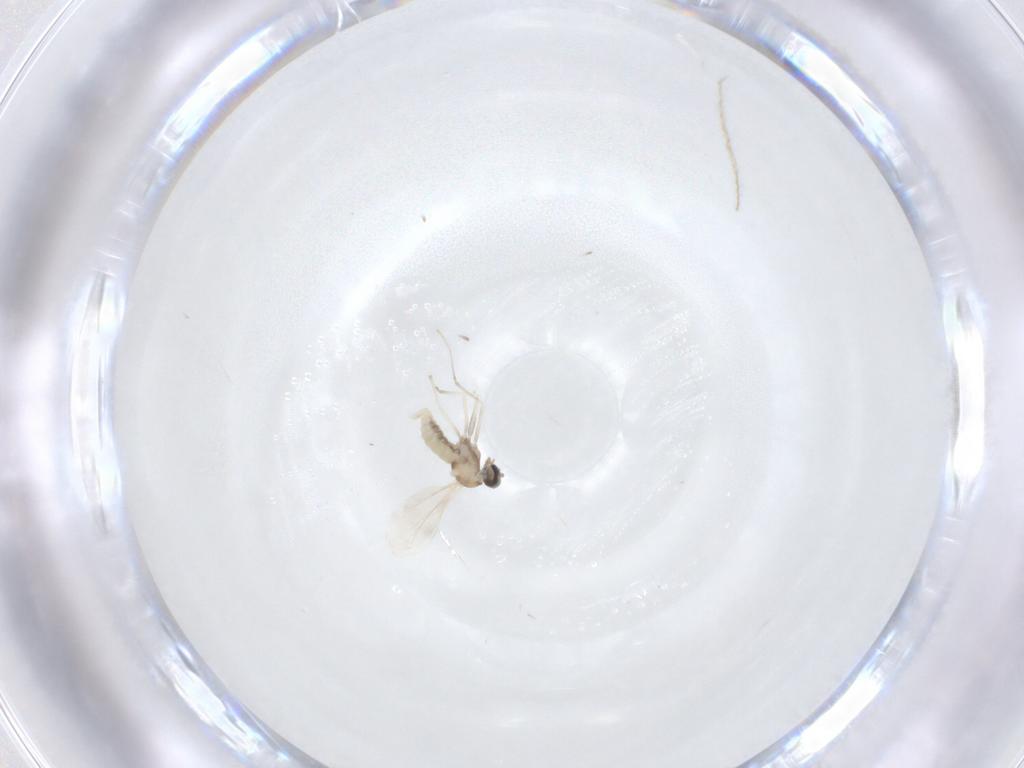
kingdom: Animalia
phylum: Arthropoda
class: Insecta
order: Diptera
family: Cecidomyiidae
